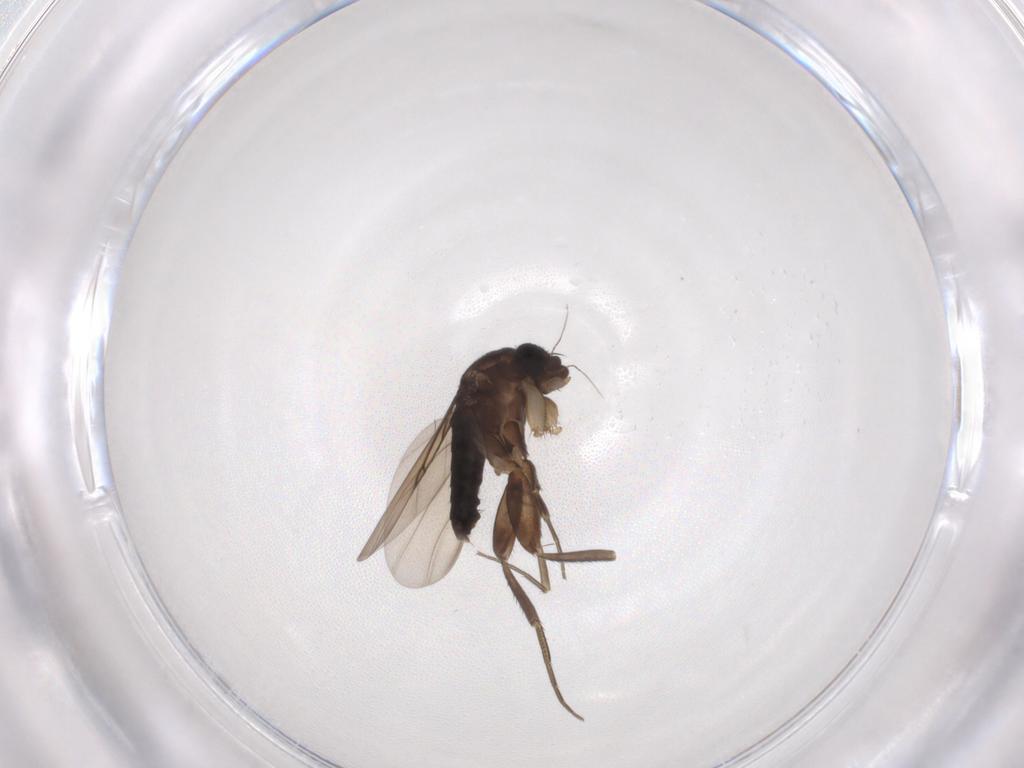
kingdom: Animalia
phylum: Arthropoda
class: Insecta
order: Diptera
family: Phoridae
